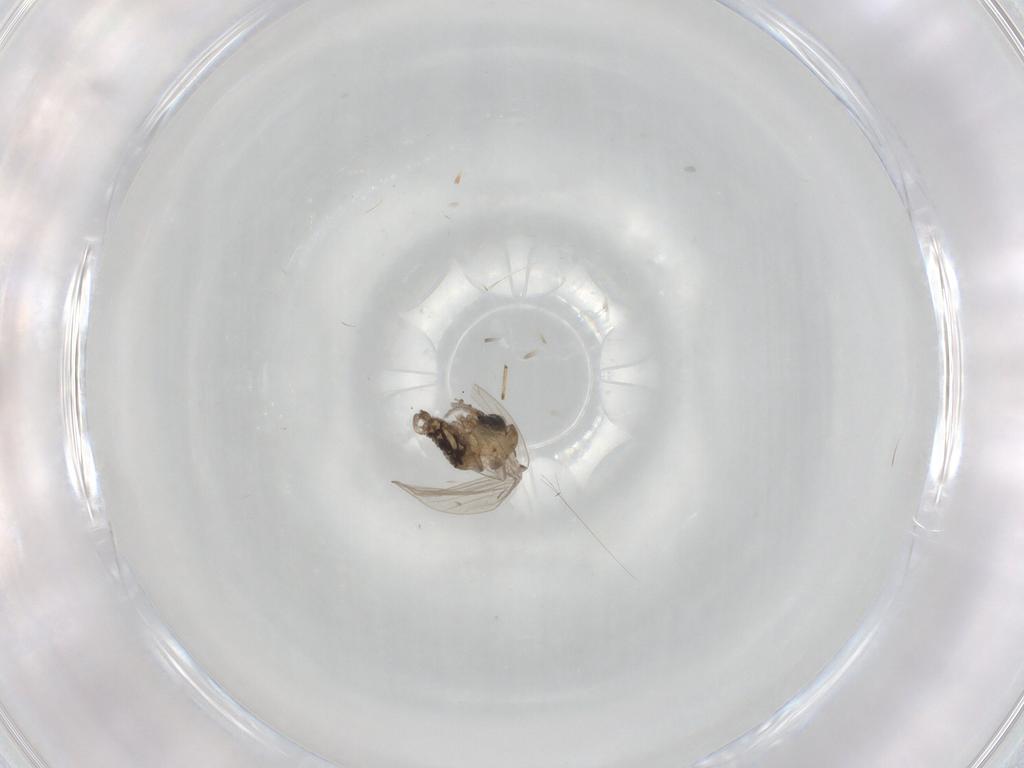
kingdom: Animalia
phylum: Arthropoda
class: Insecta
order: Diptera
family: Psychodidae
